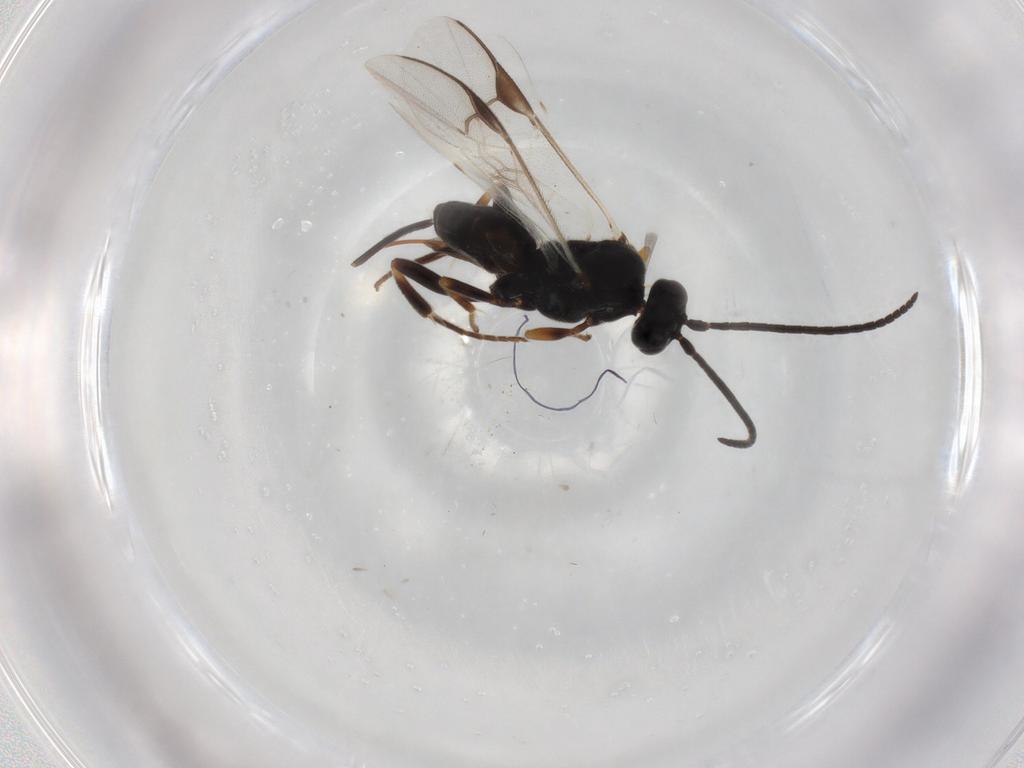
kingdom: Animalia
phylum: Arthropoda
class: Insecta
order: Hymenoptera
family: Braconidae
